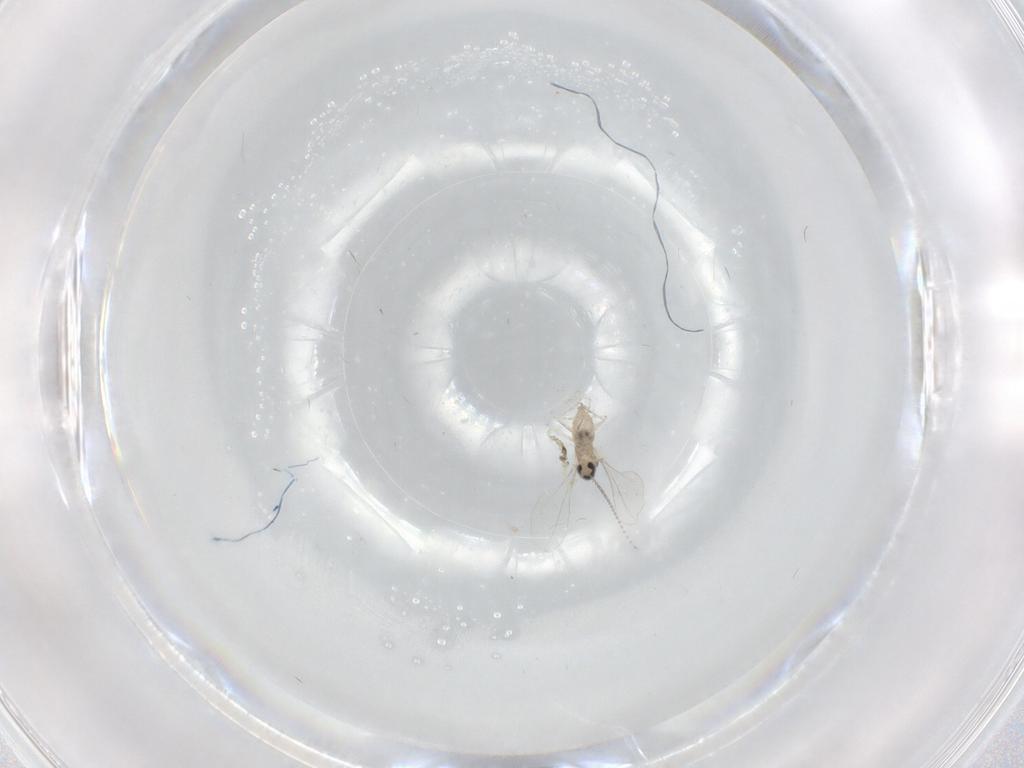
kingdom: Animalia
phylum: Arthropoda
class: Insecta
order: Diptera
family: Cecidomyiidae
